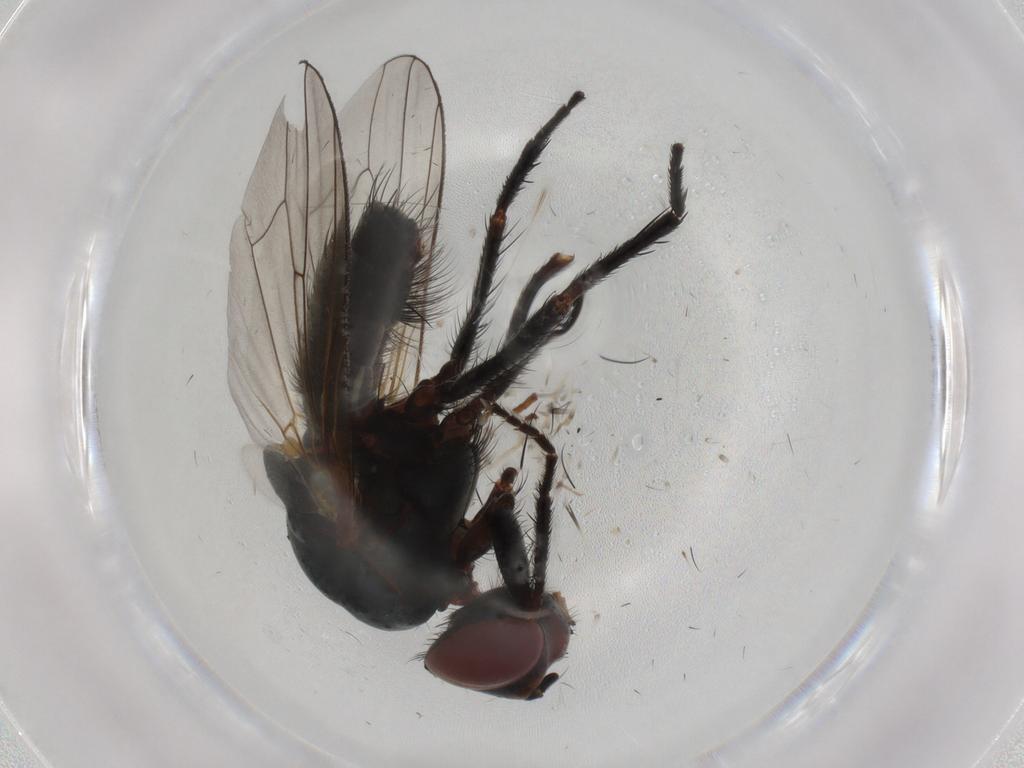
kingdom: Animalia
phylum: Arthropoda
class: Insecta
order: Diptera
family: Anthomyiidae
